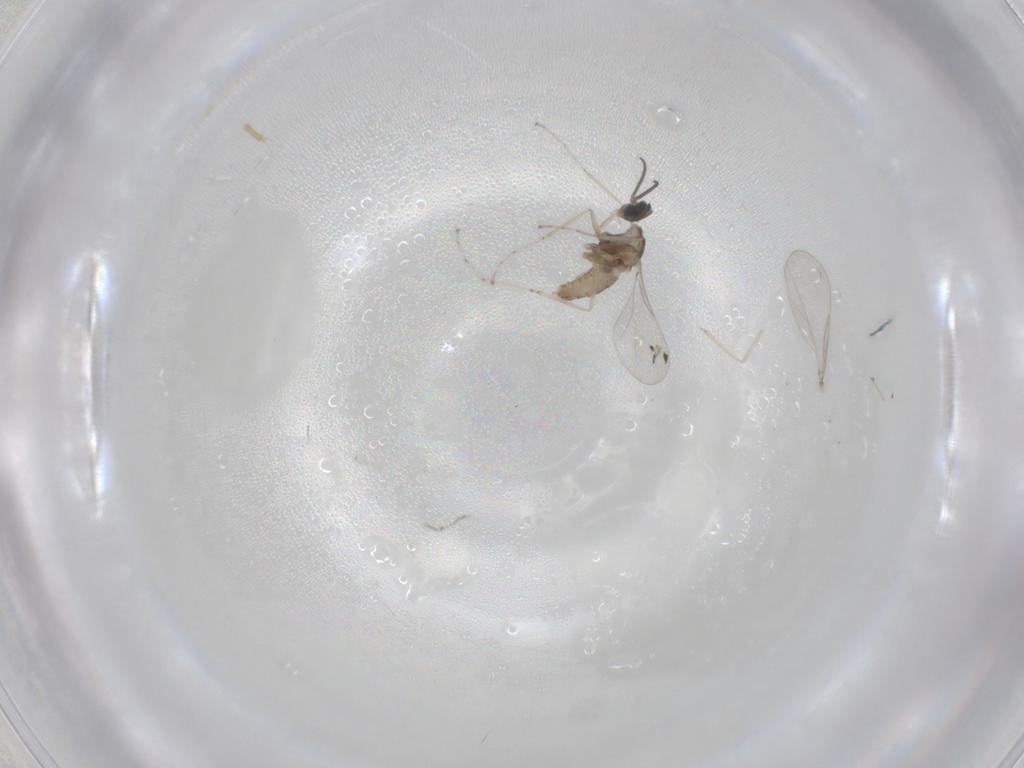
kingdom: Animalia
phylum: Arthropoda
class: Insecta
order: Diptera
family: Cecidomyiidae
